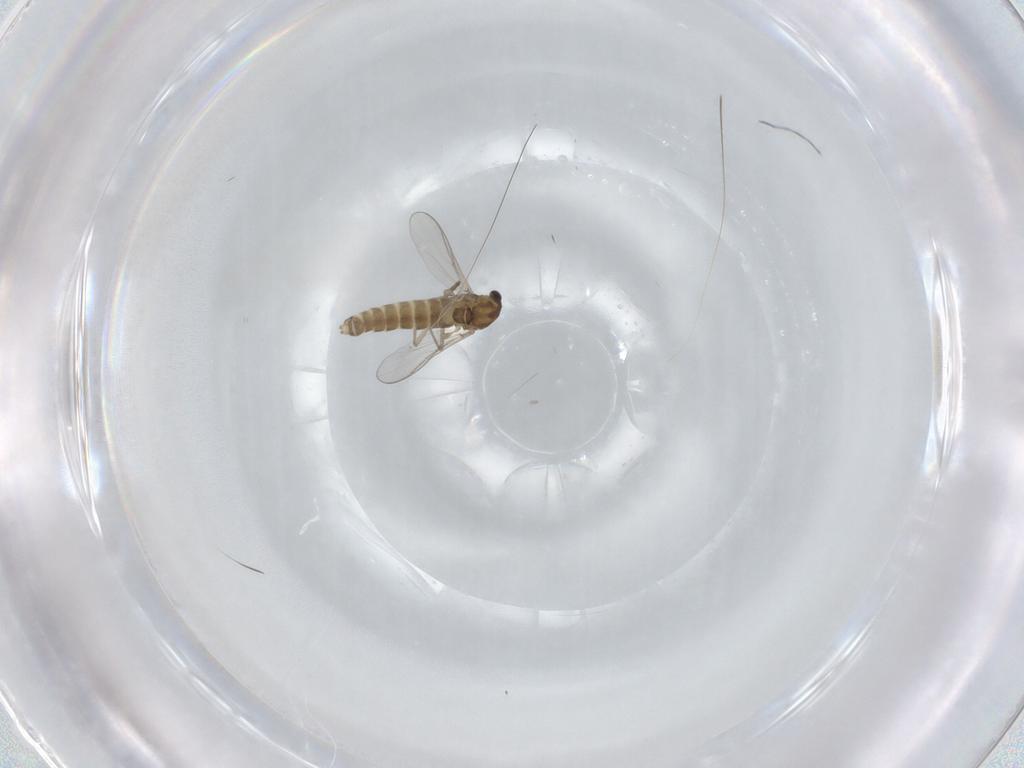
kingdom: Animalia
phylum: Arthropoda
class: Insecta
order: Diptera
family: Chironomidae
